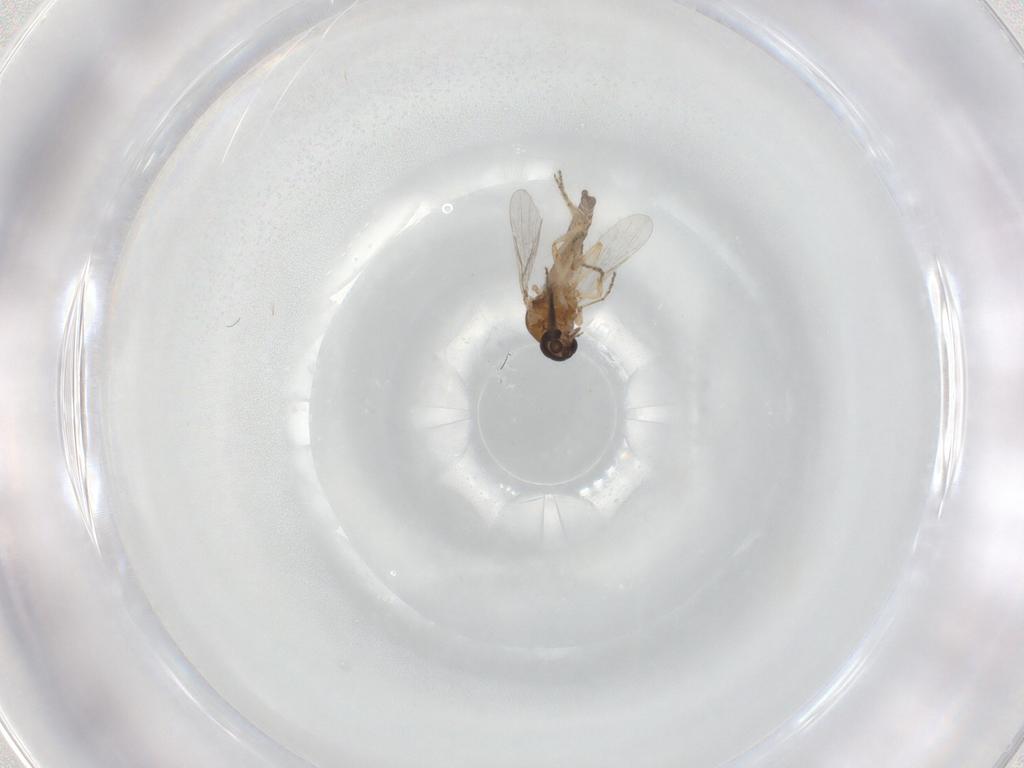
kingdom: Animalia
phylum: Arthropoda
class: Insecta
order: Diptera
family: Ceratopogonidae
